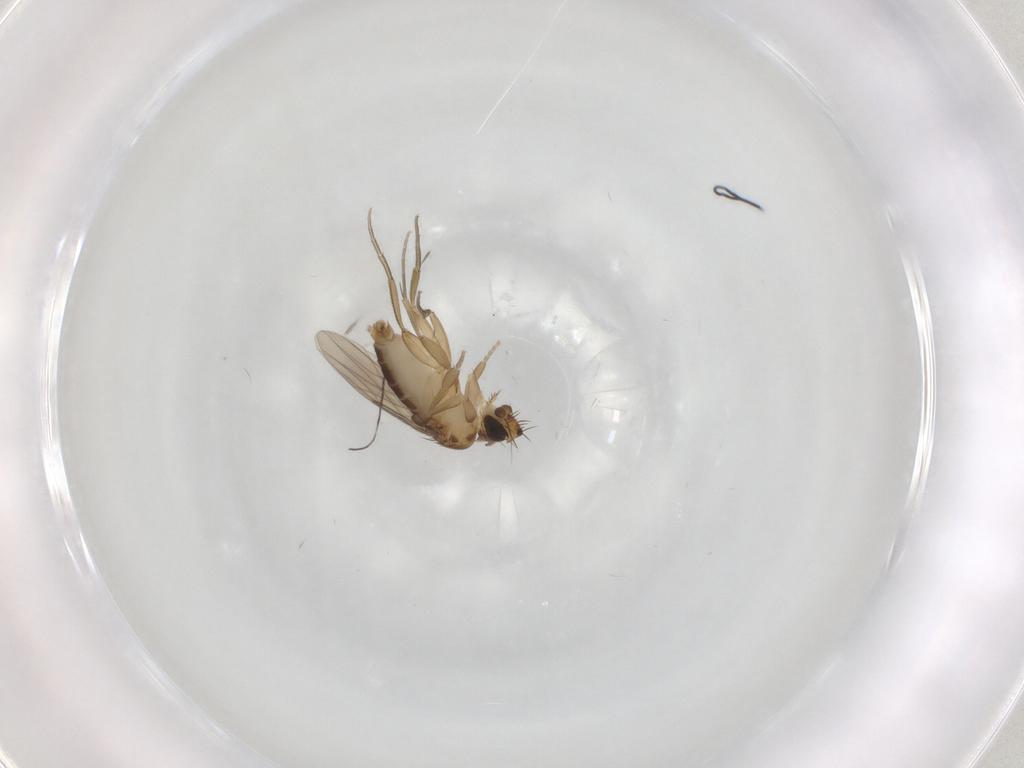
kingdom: Animalia
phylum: Arthropoda
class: Insecta
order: Diptera
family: Phoridae
